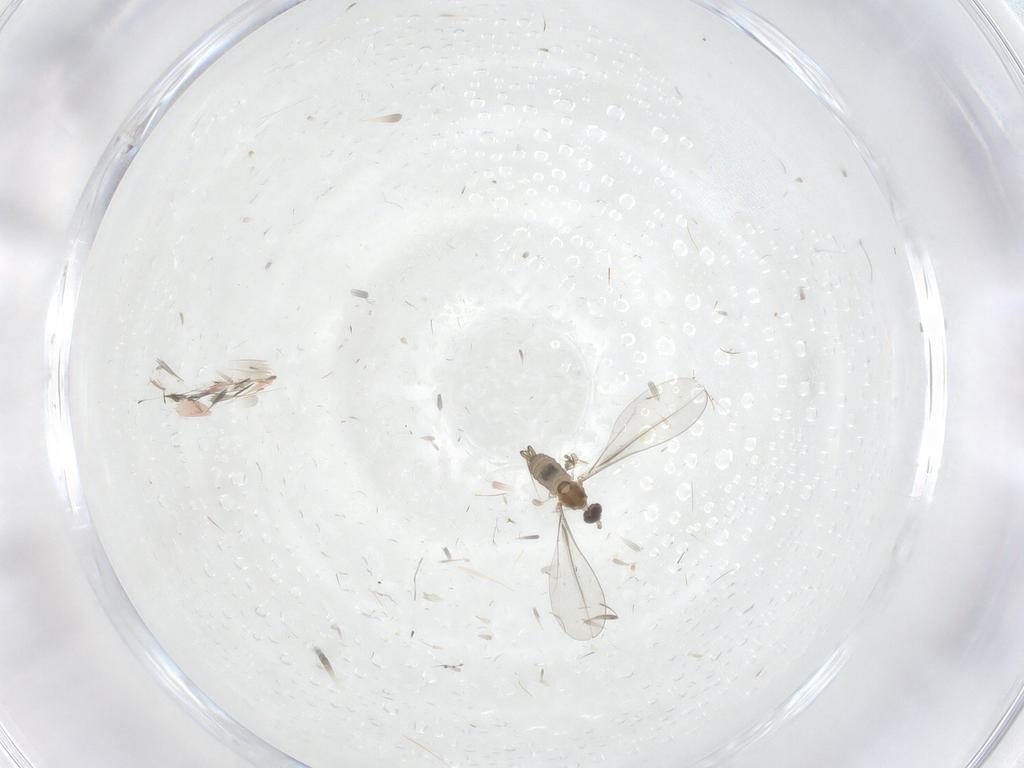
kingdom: Animalia
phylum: Arthropoda
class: Insecta
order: Diptera
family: Cecidomyiidae
